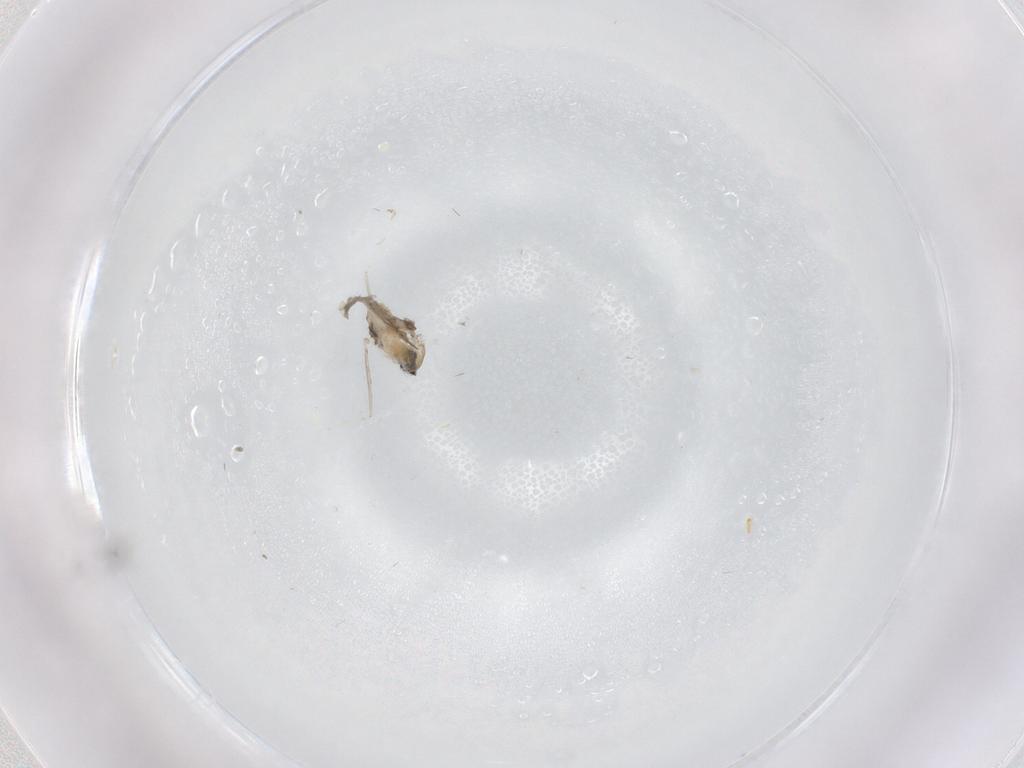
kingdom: Animalia
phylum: Arthropoda
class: Insecta
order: Diptera
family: Cecidomyiidae
